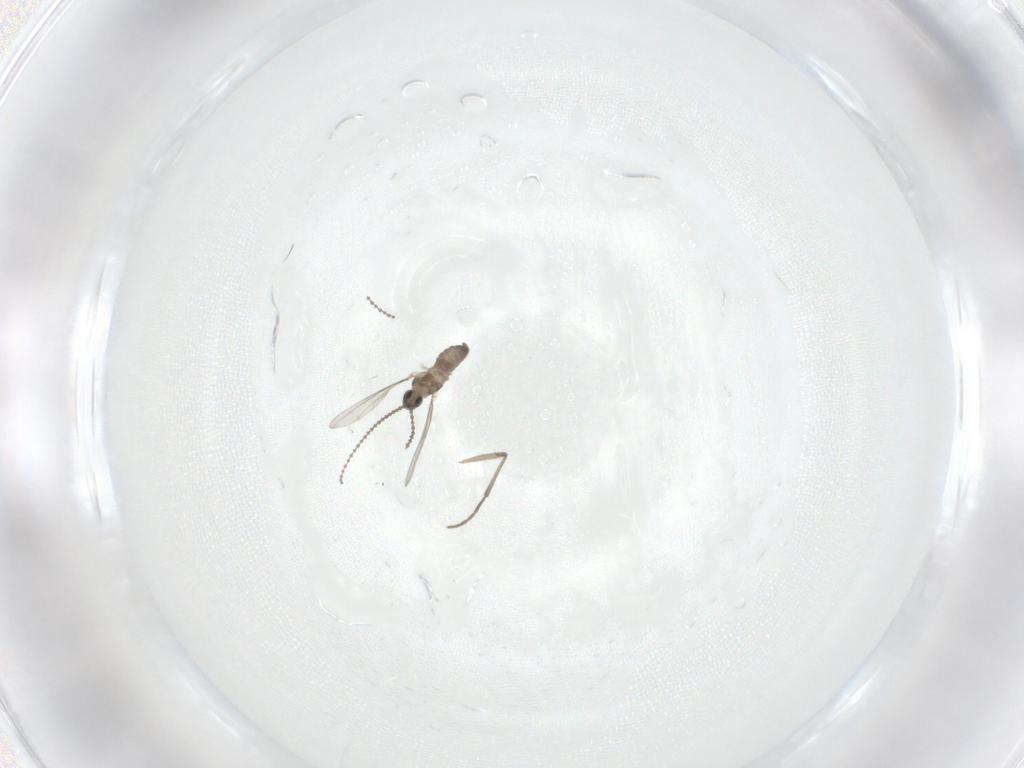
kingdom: Animalia
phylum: Arthropoda
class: Insecta
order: Diptera
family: Cecidomyiidae
